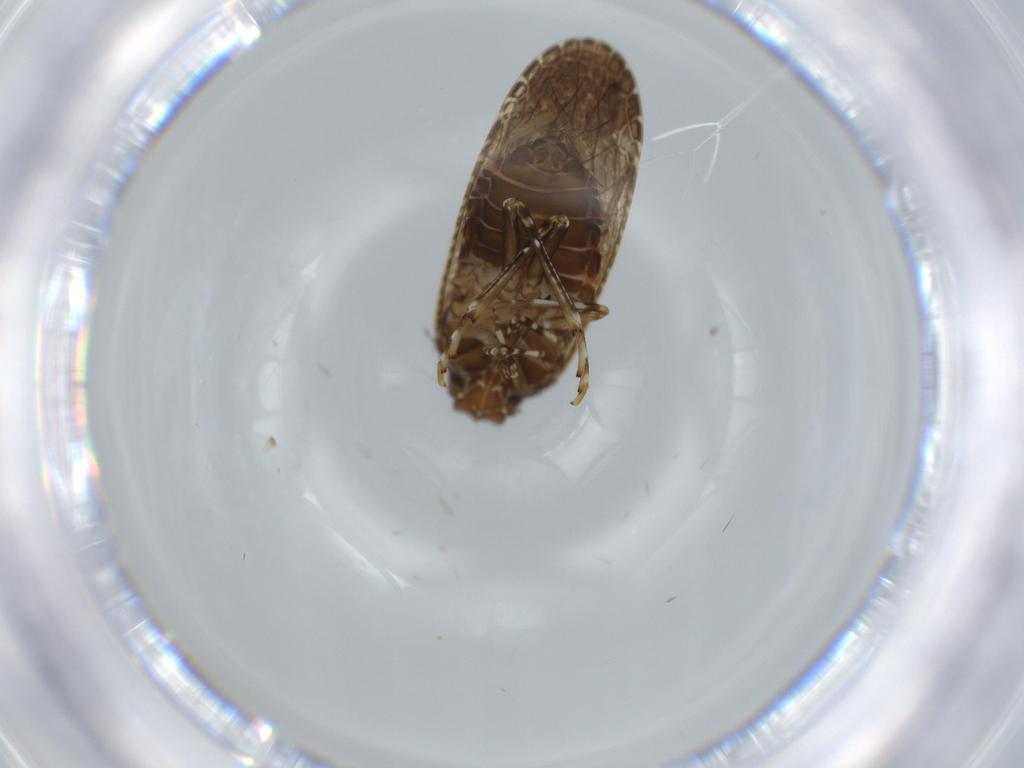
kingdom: Animalia
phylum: Arthropoda
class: Insecta
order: Hemiptera
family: Achilidae
